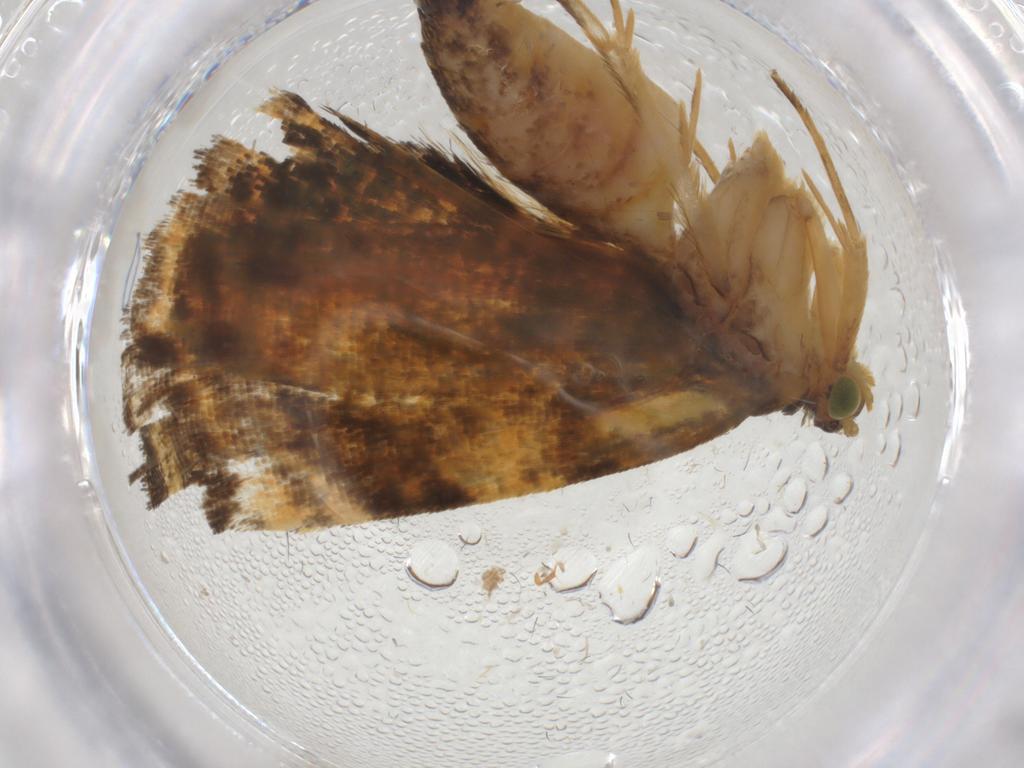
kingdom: Animalia
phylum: Arthropoda
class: Insecta
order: Lepidoptera
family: Tortricidae
